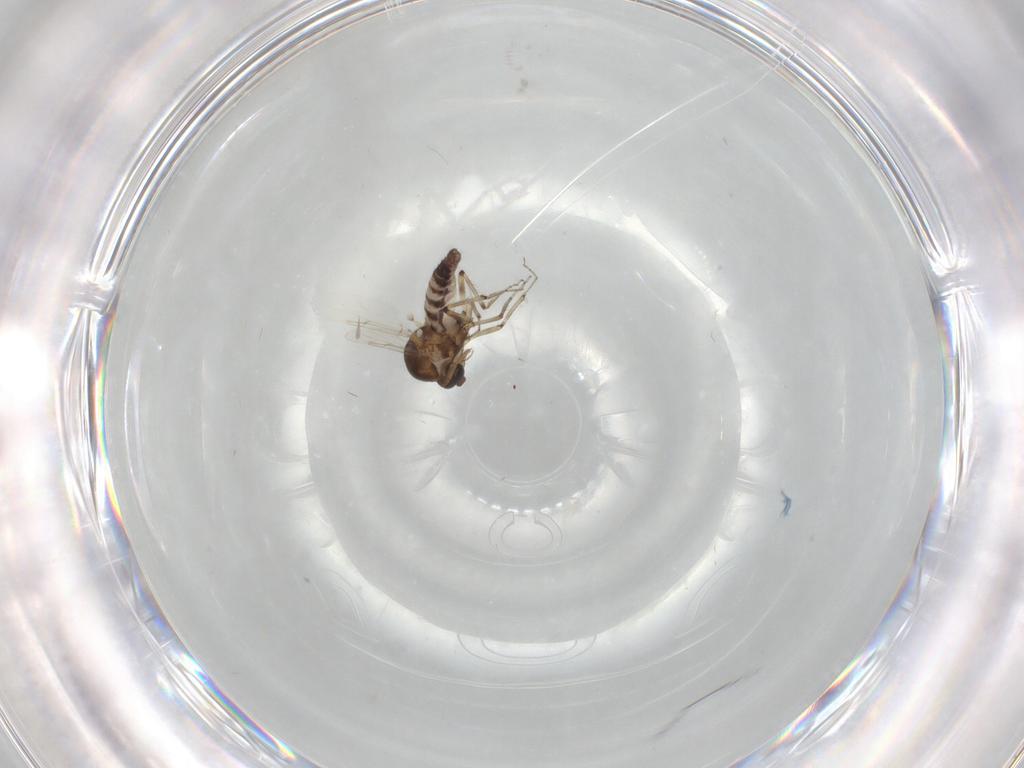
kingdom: Animalia
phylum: Arthropoda
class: Insecta
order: Diptera
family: Ceratopogonidae
